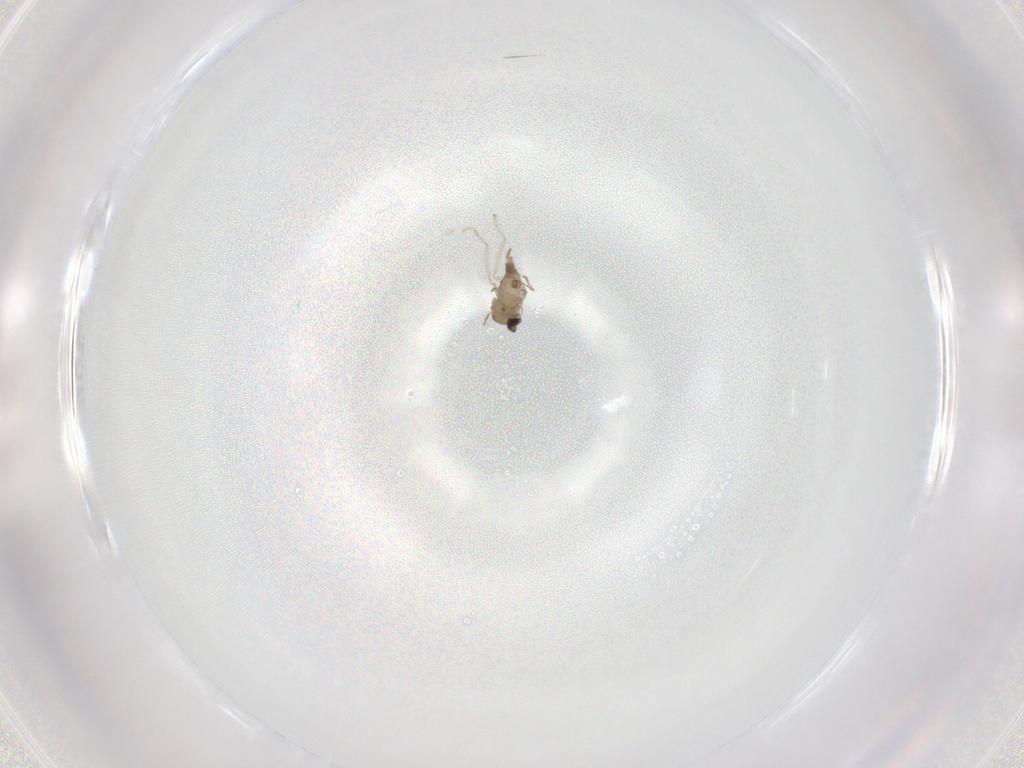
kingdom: Animalia
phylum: Arthropoda
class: Insecta
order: Diptera
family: Cecidomyiidae
